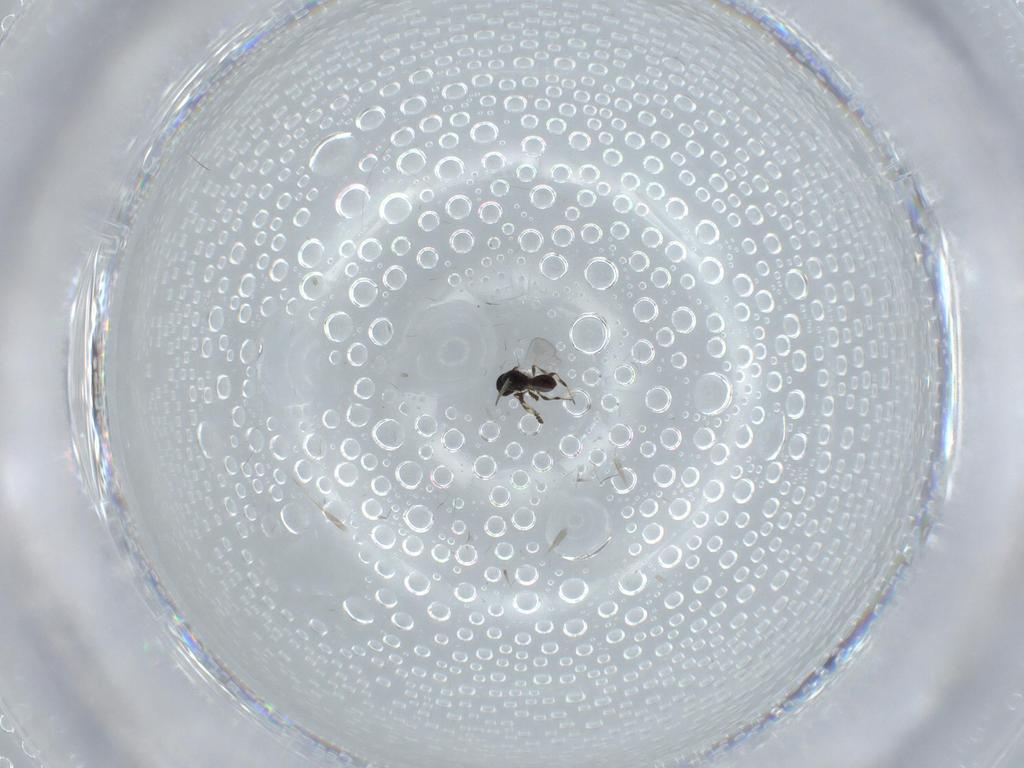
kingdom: Animalia
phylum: Arthropoda
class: Insecta
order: Hymenoptera
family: Platygastridae
